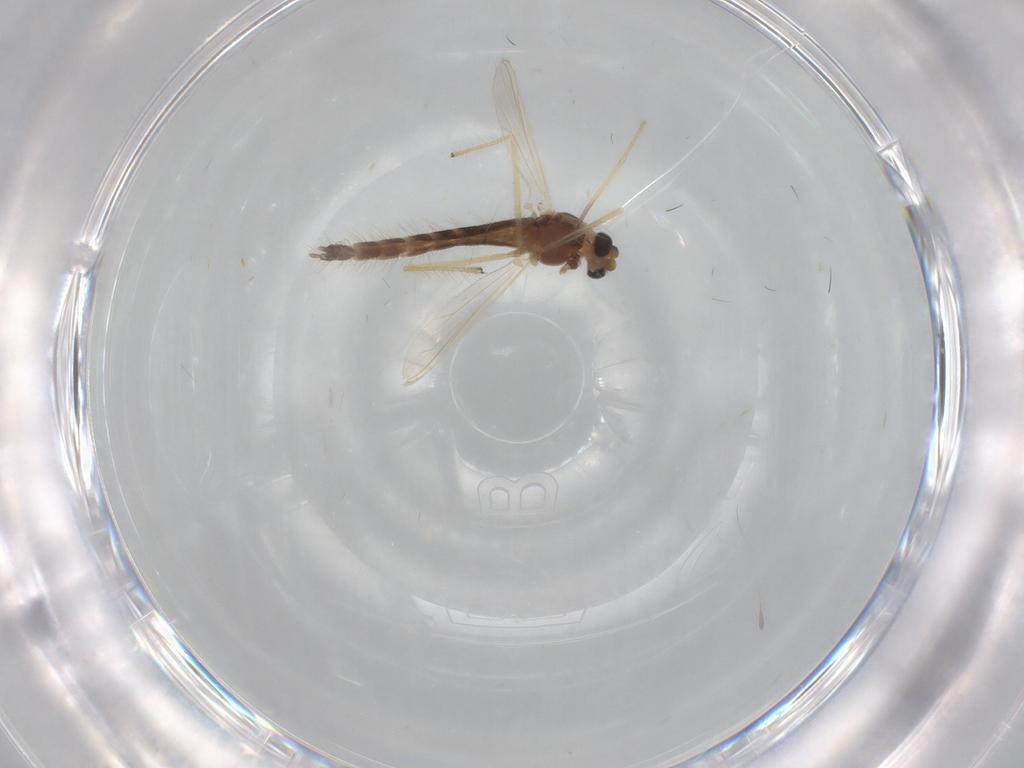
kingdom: Animalia
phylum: Arthropoda
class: Insecta
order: Diptera
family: Chironomidae
